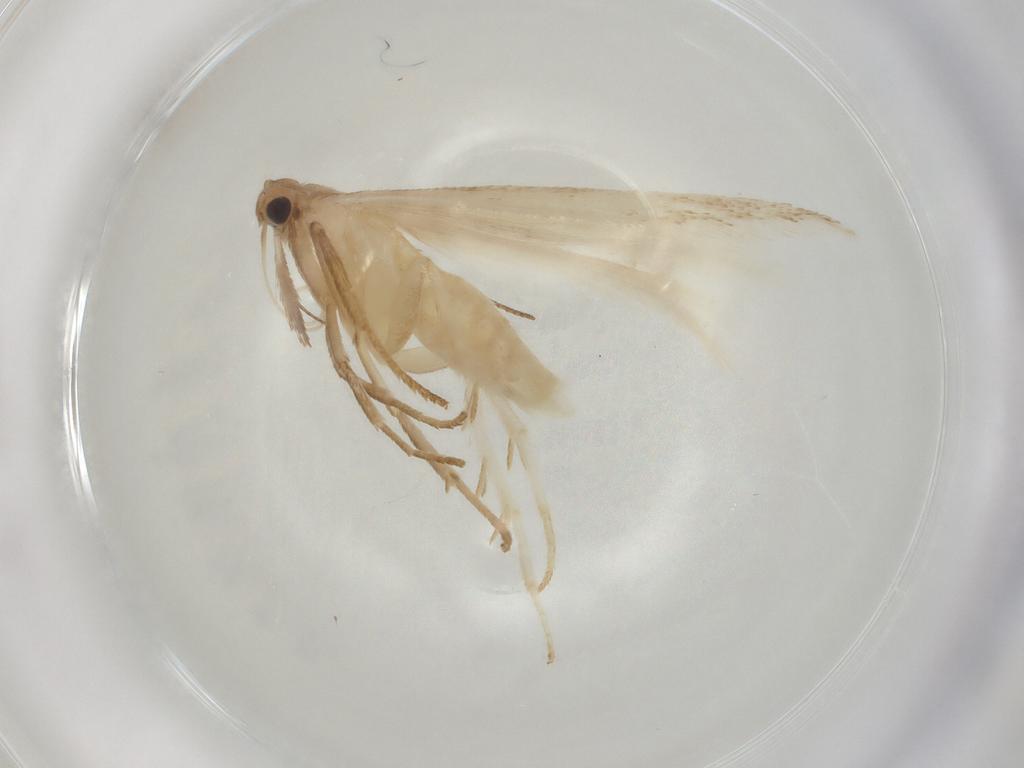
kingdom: Animalia
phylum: Arthropoda
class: Insecta
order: Lepidoptera
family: Gelechiidae
